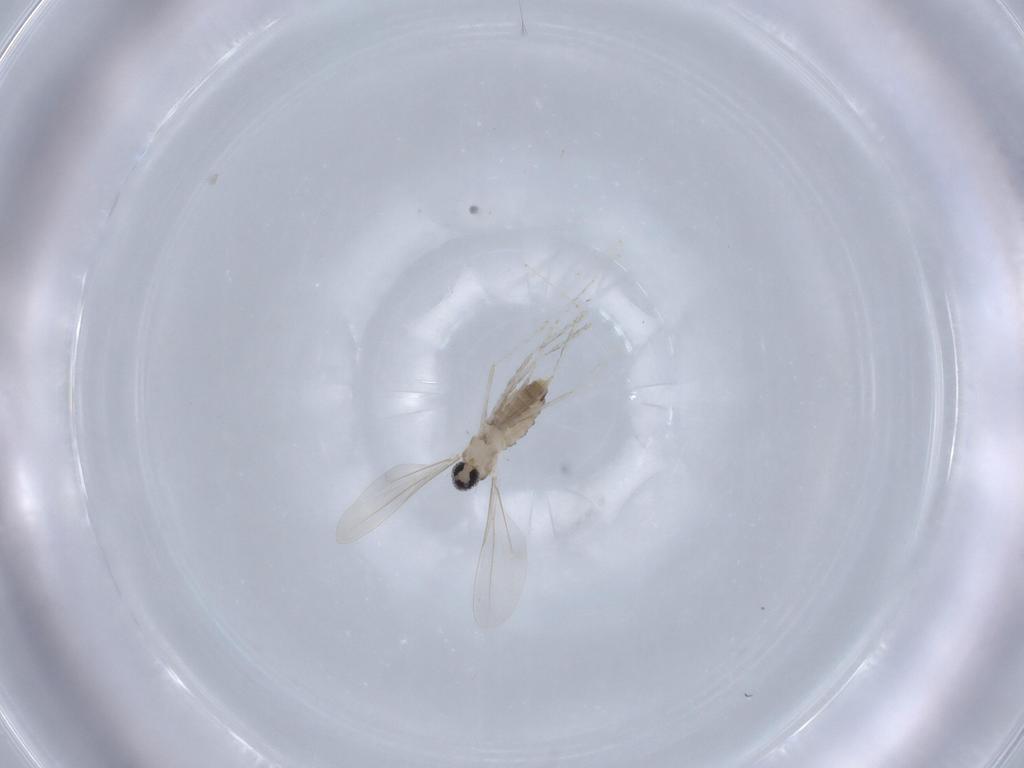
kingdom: Animalia
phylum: Arthropoda
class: Insecta
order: Diptera
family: Cecidomyiidae
